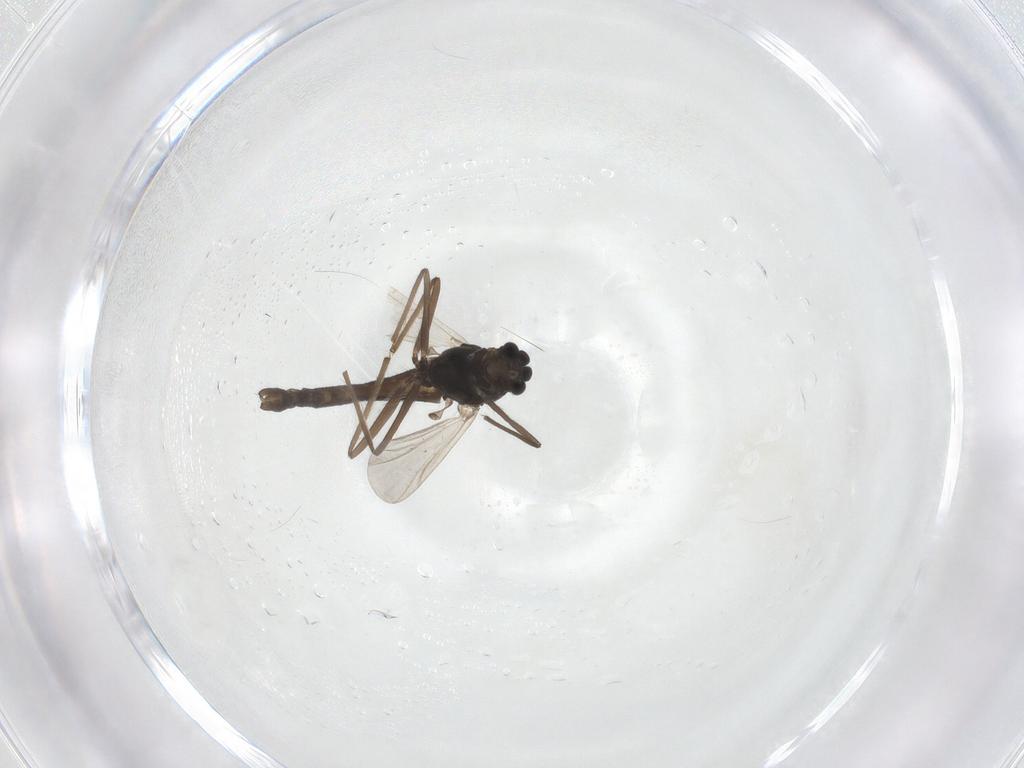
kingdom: Animalia
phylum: Arthropoda
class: Insecta
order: Diptera
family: Chironomidae
